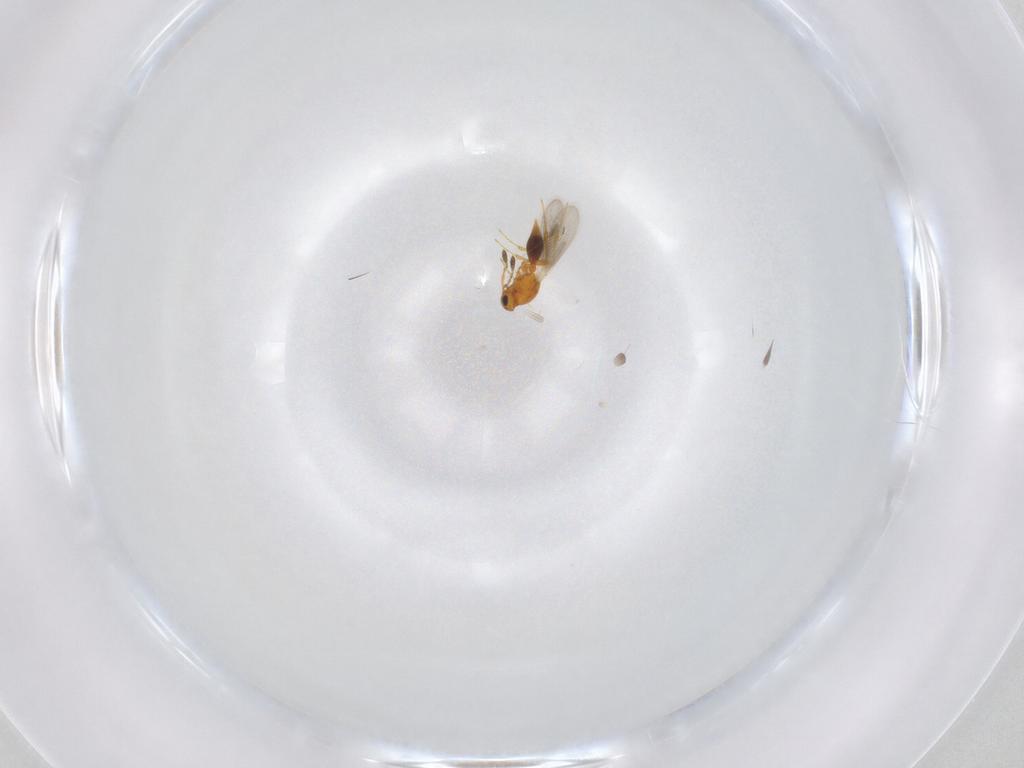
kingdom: Animalia
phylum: Arthropoda
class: Insecta
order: Hymenoptera
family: Platygastridae
